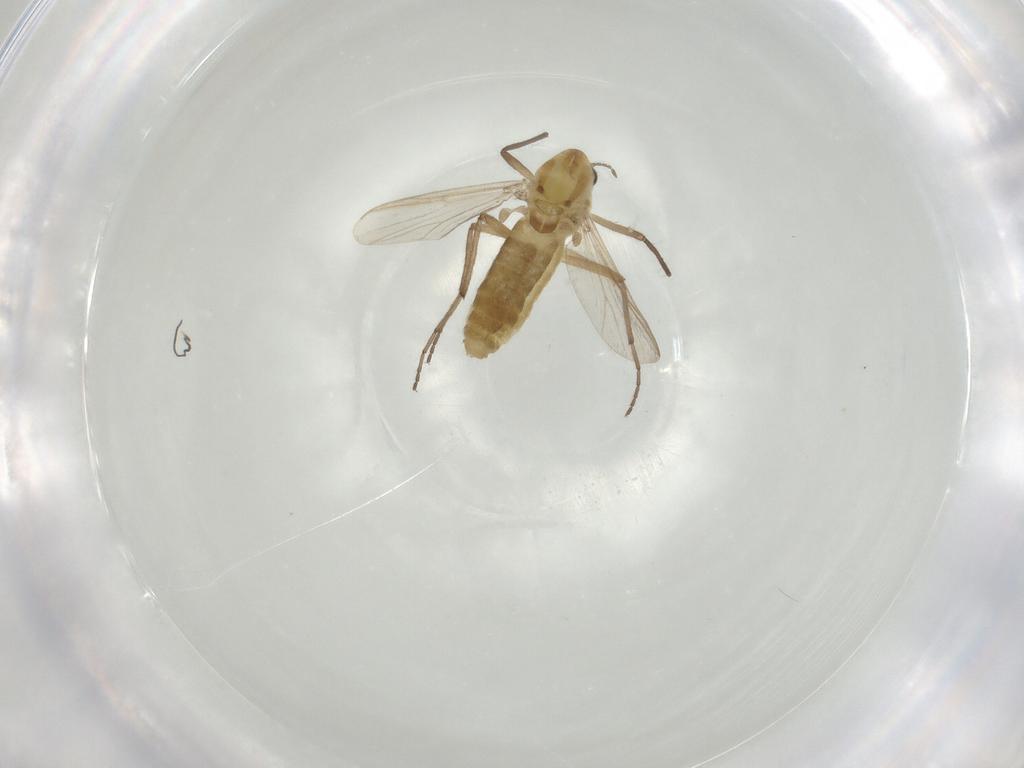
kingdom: Animalia
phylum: Arthropoda
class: Insecta
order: Diptera
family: Chironomidae
